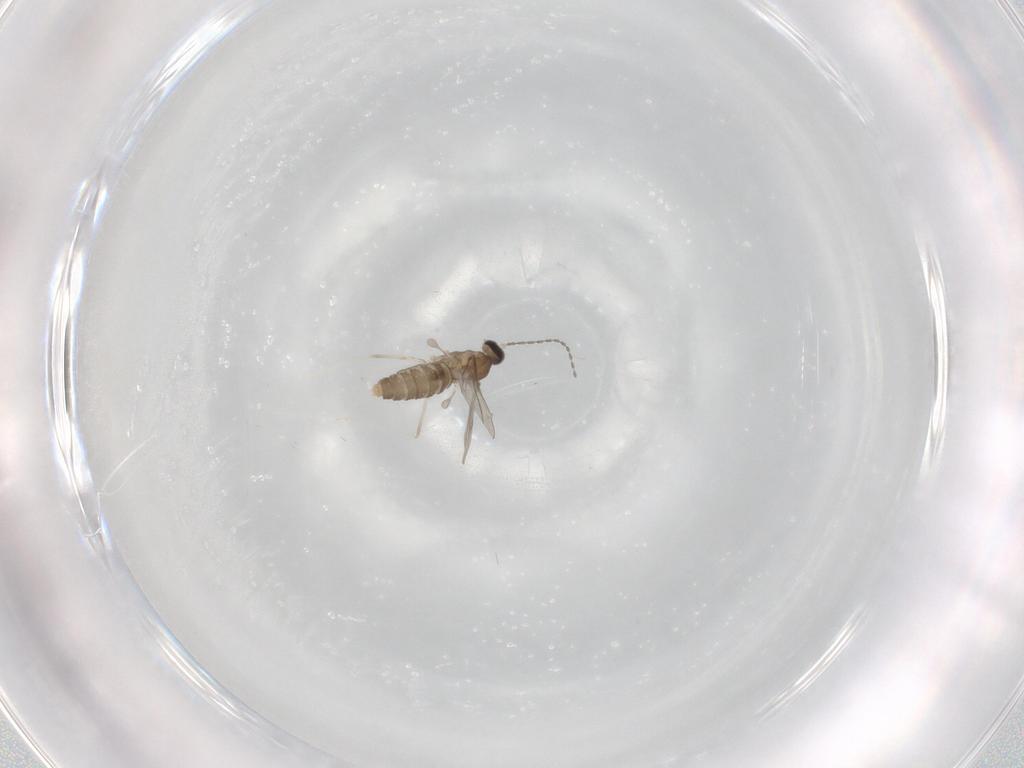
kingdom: Animalia
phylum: Arthropoda
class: Insecta
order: Diptera
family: Cecidomyiidae
